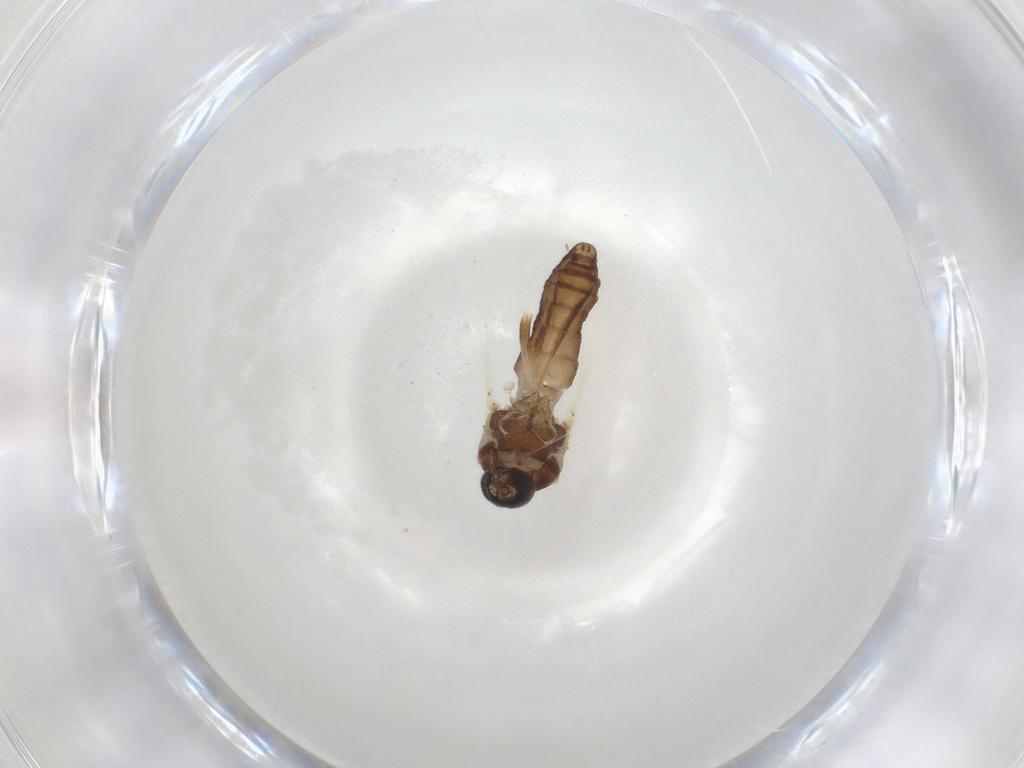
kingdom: Animalia
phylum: Arthropoda
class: Insecta
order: Diptera
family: Ceratopogonidae
